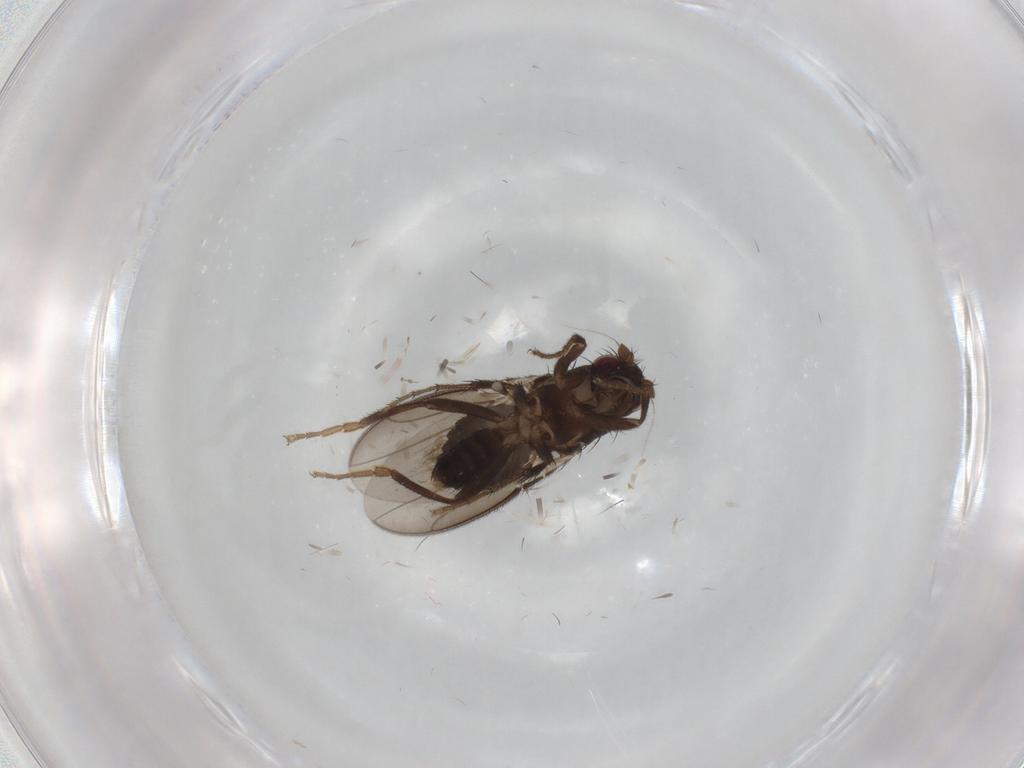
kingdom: Animalia
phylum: Arthropoda
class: Insecta
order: Diptera
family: Sphaeroceridae
